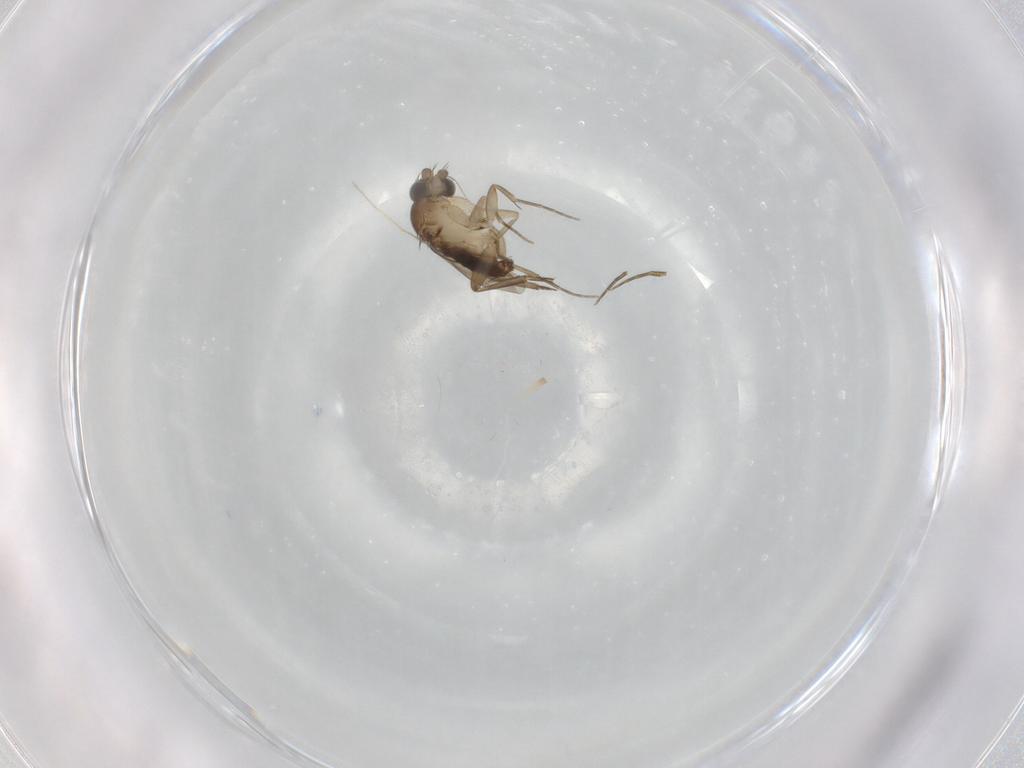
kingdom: Animalia
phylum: Arthropoda
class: Insecta
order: Diptera
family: Phoridae
